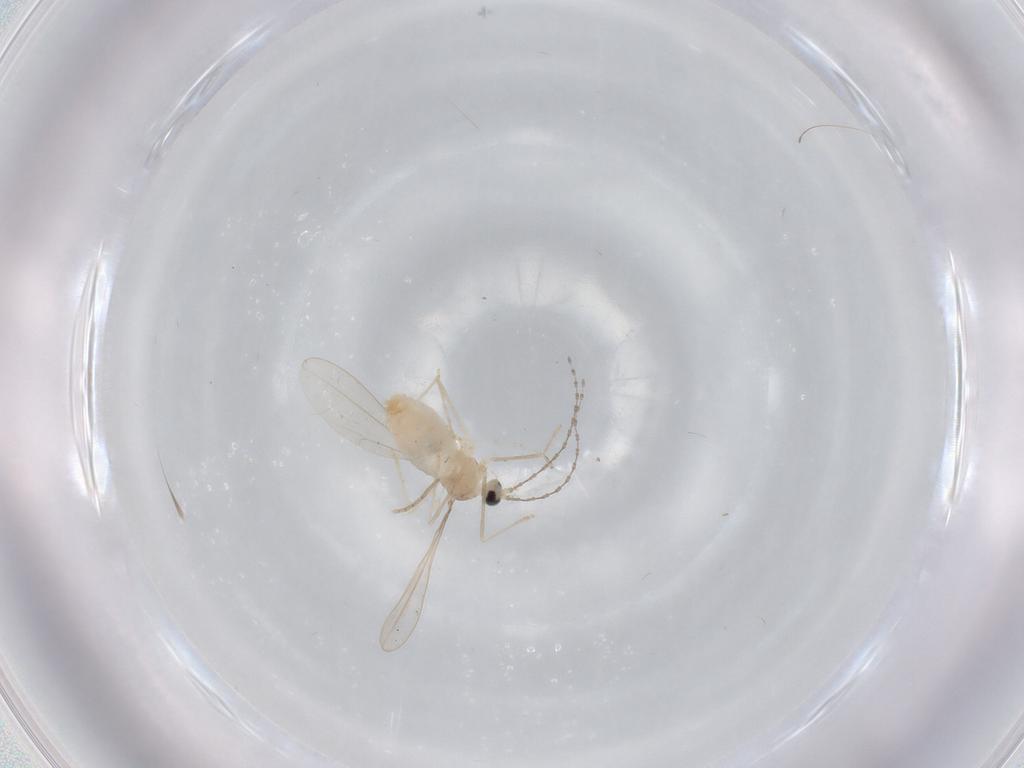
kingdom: Animalia
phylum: Arthropoda
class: Insecta
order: Diptera
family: Cecidomyiidae
